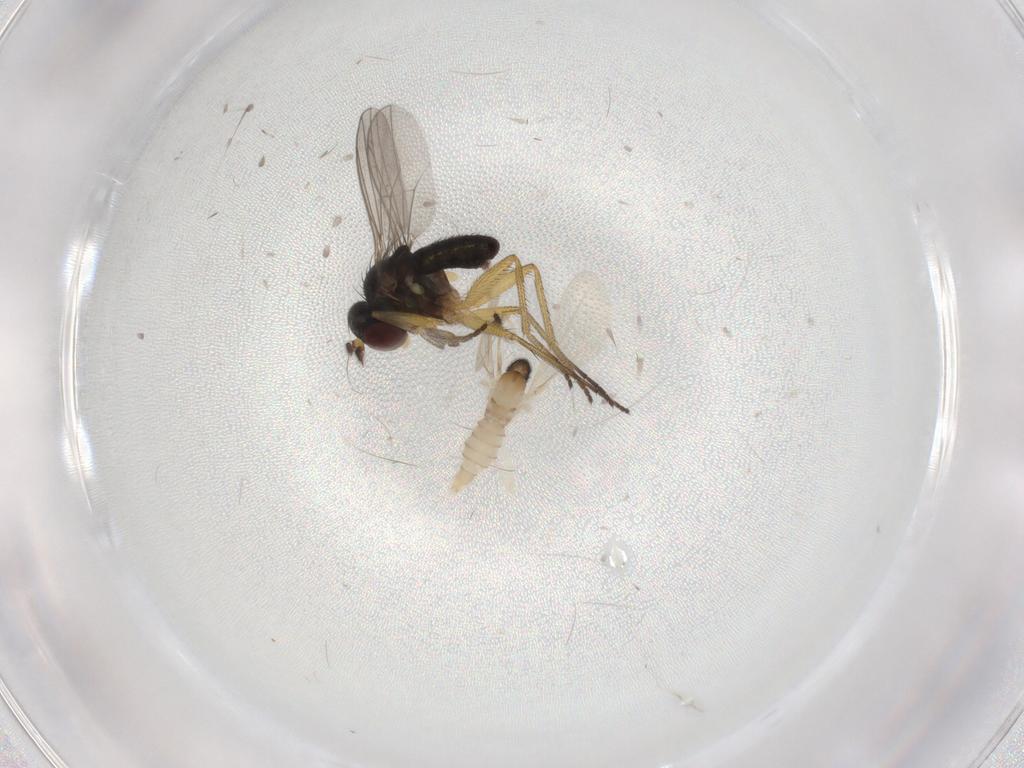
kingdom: Animalia
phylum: Arthropoda
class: Insecta
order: Diptera
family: Dolichopodidae
